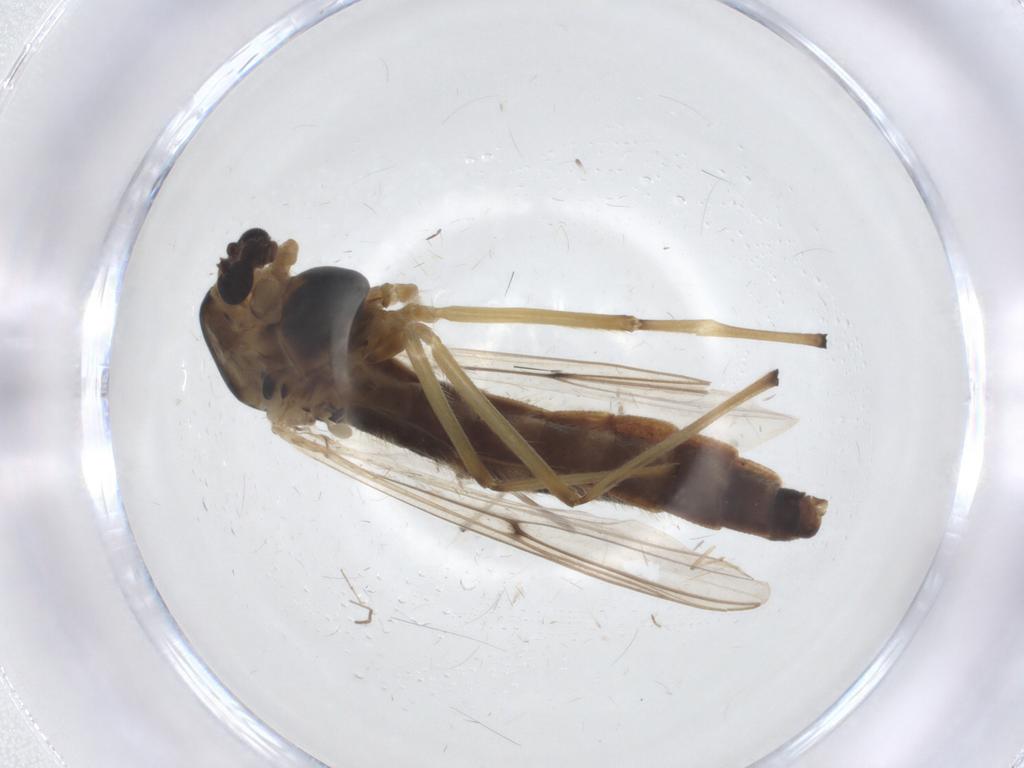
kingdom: Animalia
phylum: Arthropoda
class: Insecta
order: Diptera
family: Chironomidae
